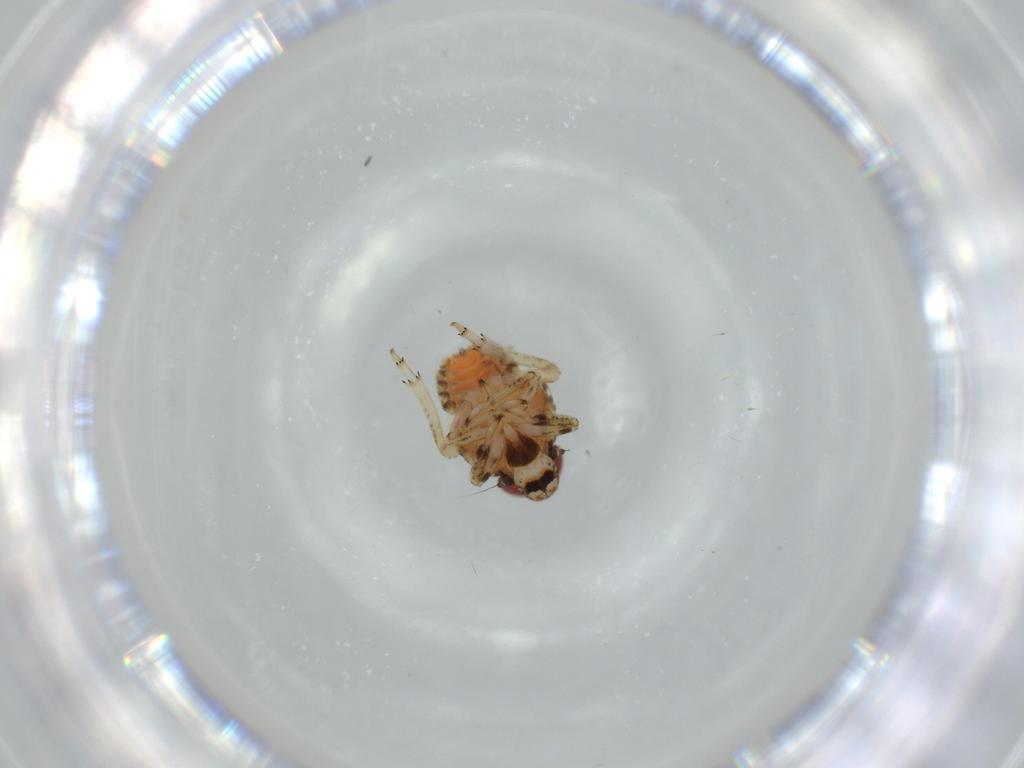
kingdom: Animalia
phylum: Arthropoda
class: Insecta
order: Hemiptera
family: Issidae
